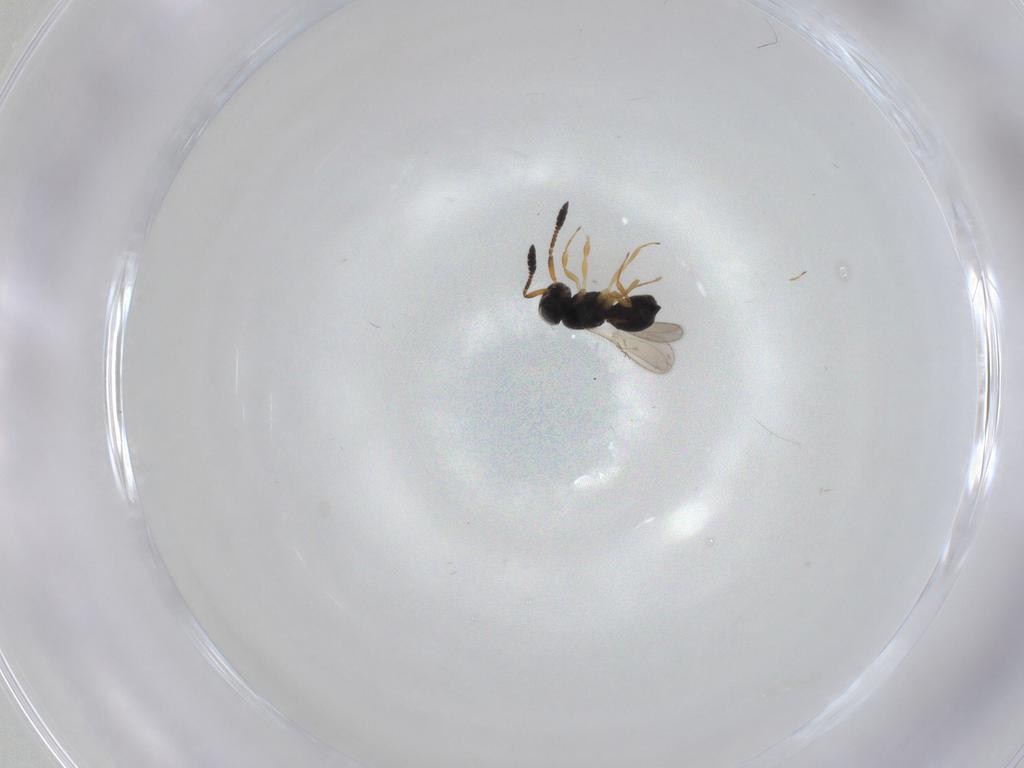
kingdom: Animalia
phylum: Arthropoda
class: Insecta
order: Hymenoptera
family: Scelionidae
